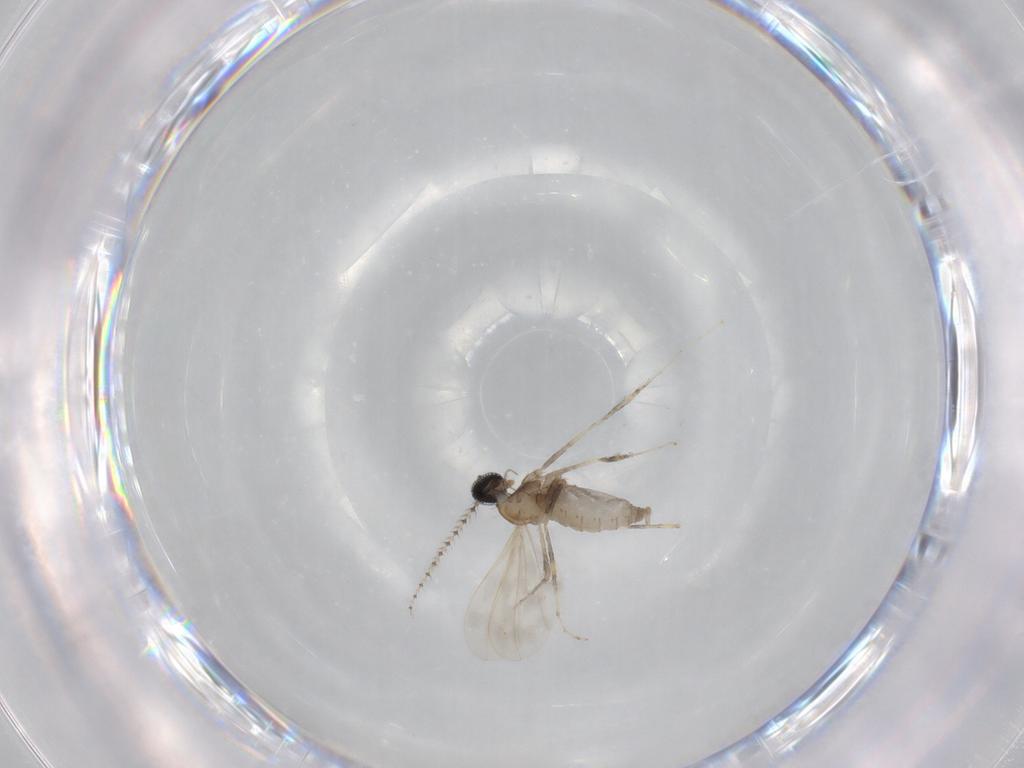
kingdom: Animalia
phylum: Arthropoda
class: Insecta
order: Diptera
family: Cecidomyiidae
